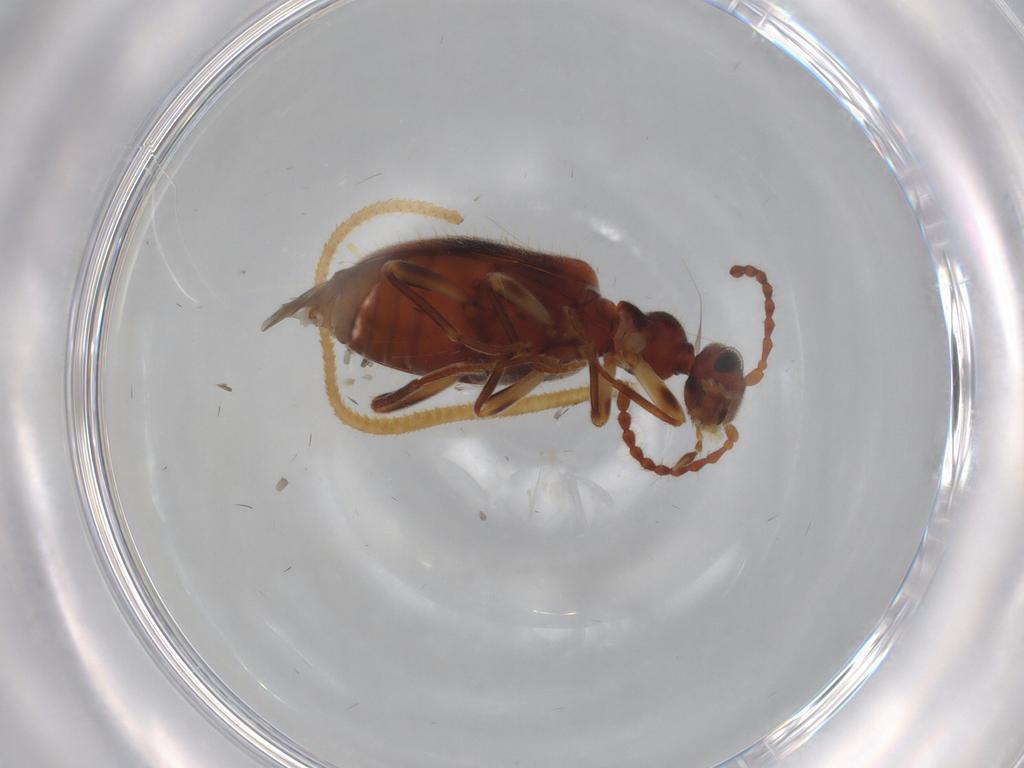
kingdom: Animalia
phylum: Arthropoda
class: Insecta
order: Coleoptera
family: Anthicidae
